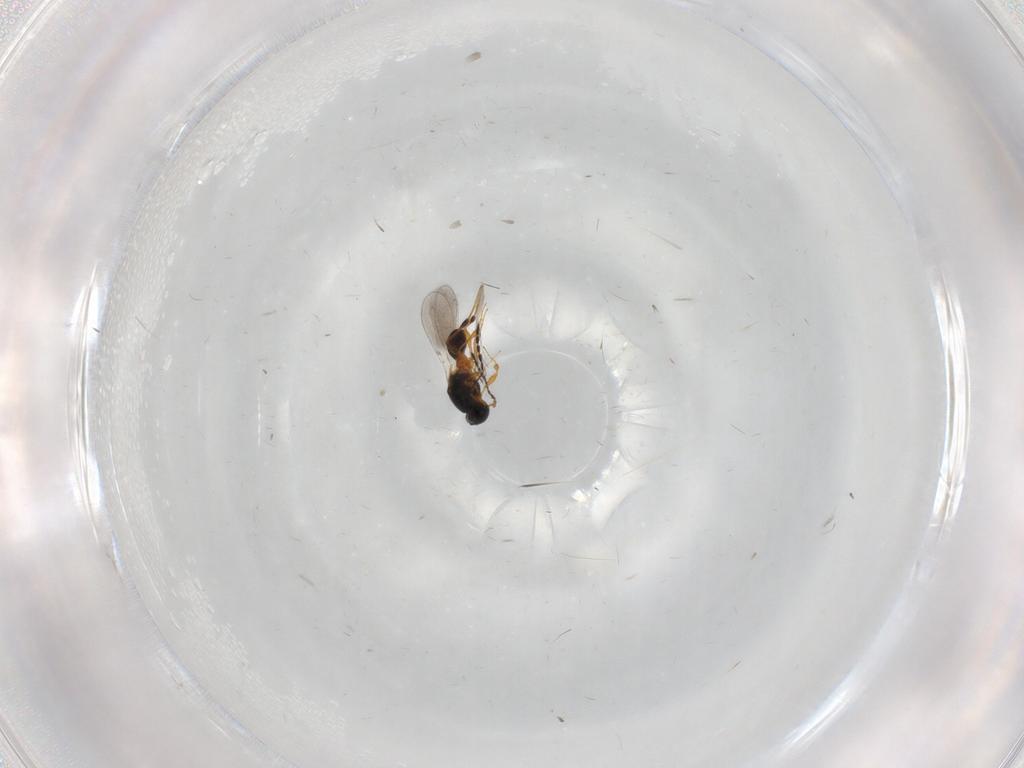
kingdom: Animalia
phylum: Arthropoda
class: Insecta
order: Hymenoptera
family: Platygastridae
